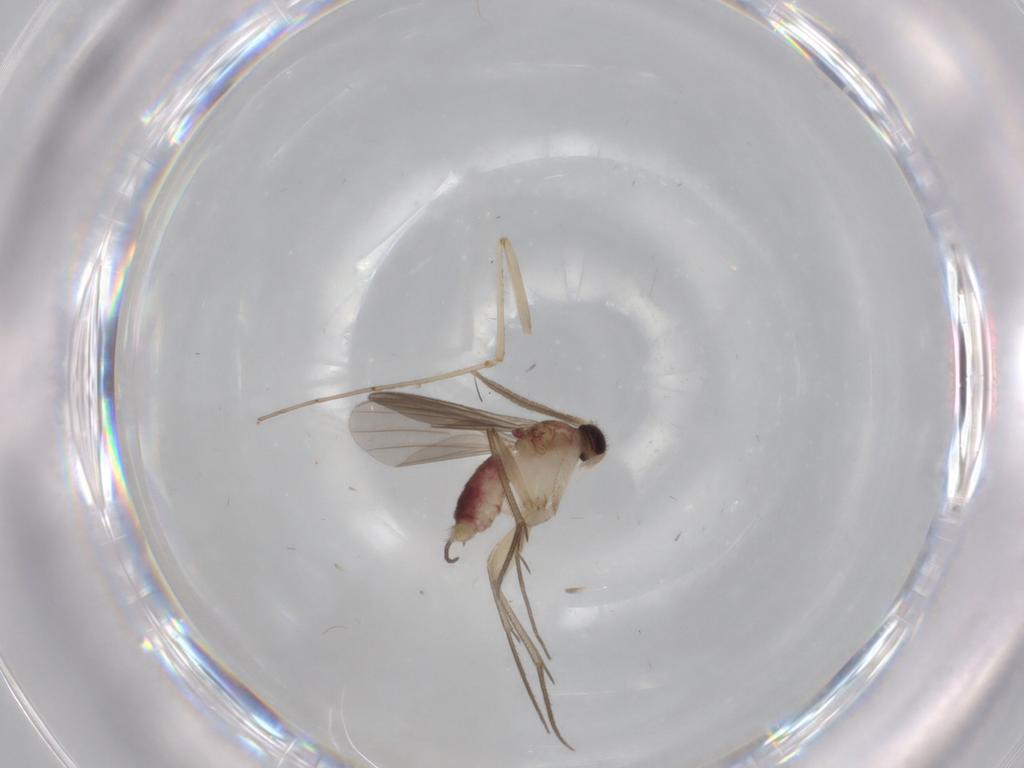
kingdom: Animalia
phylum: Arthropoda
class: Insecta
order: Diptera
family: Mycetophilidae
